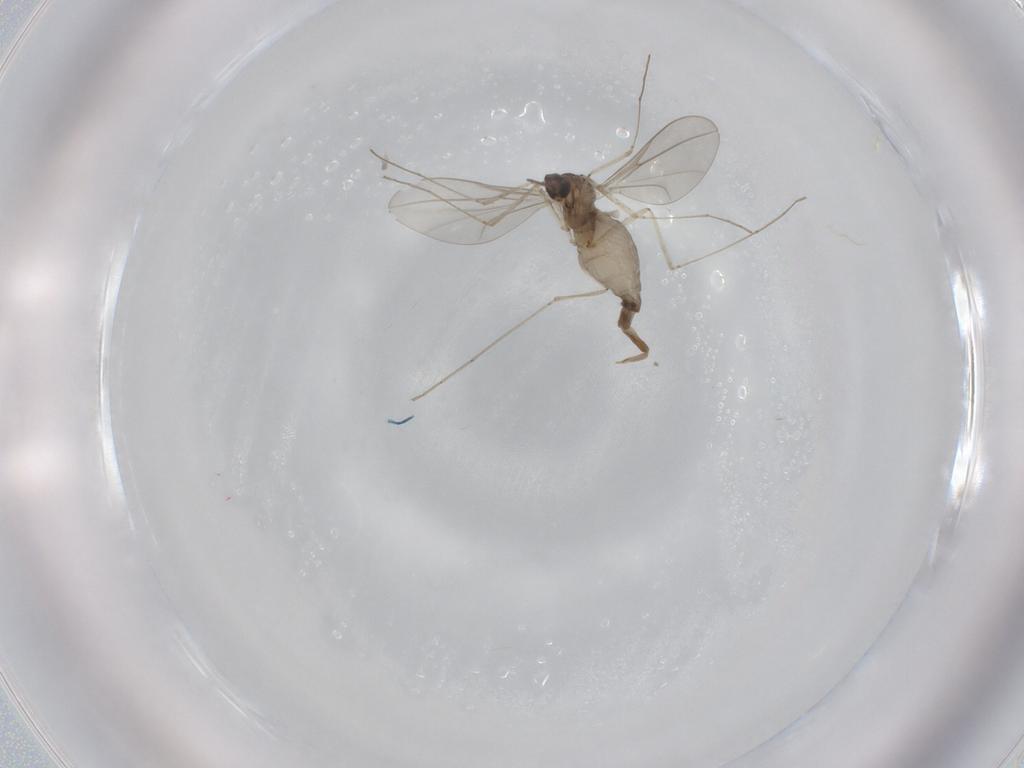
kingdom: Animalia
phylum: Arthropoda
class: Insecta
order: Diptera
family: Cecidomyiidae
